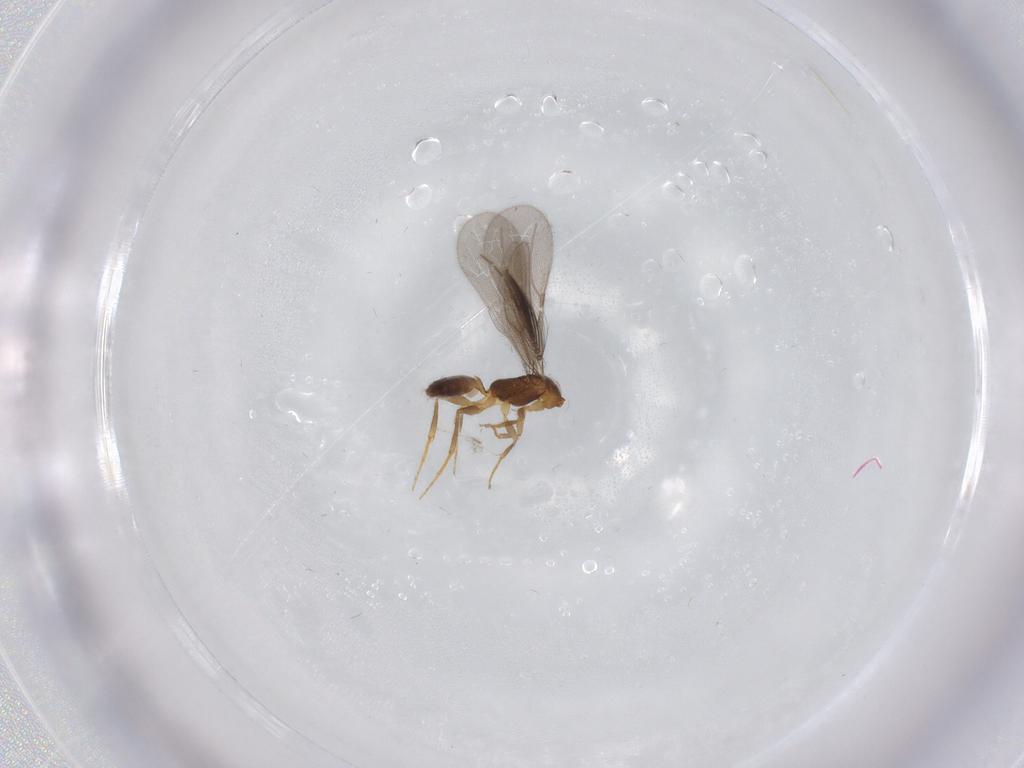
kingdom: Animalia
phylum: Arthropoda
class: Insecta
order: Hymenoptera
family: Bethylidae
